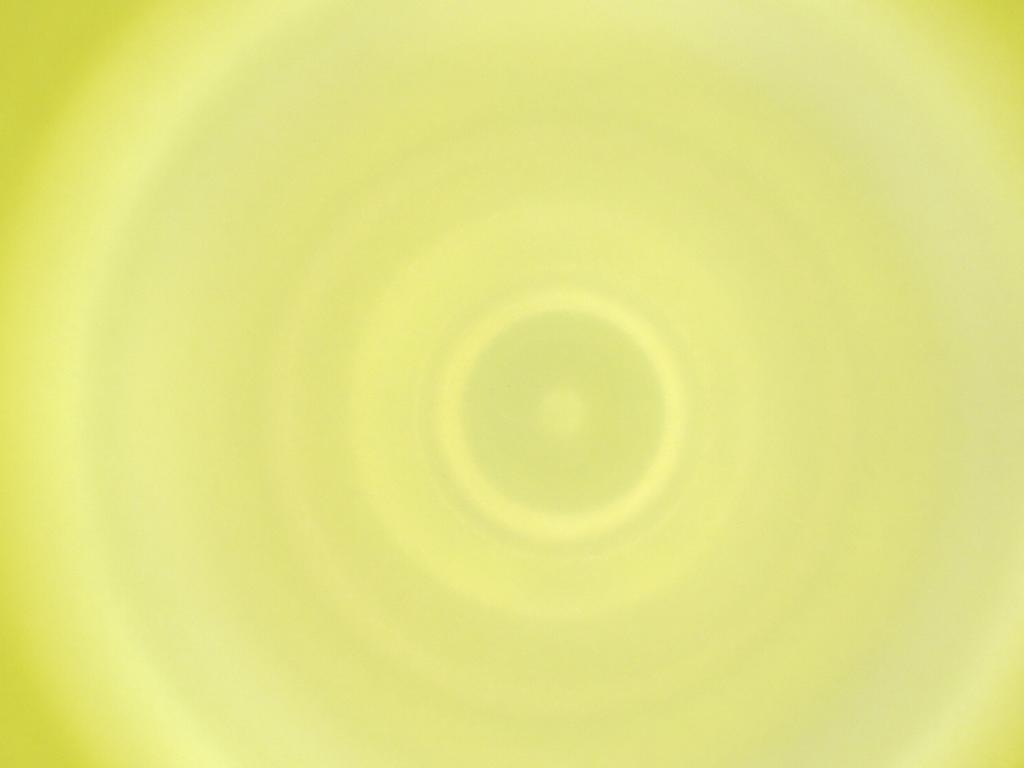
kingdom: Animalia
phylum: Arthropoda
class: Insecta
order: Diptera
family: Cecidomyiidae
